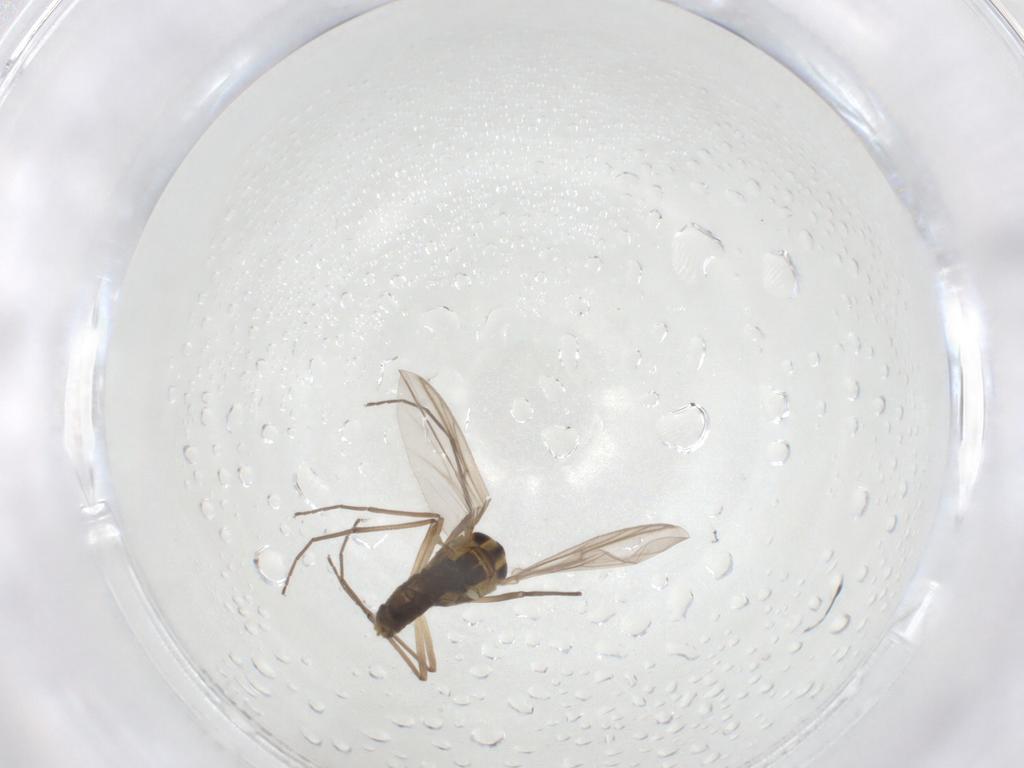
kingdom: Animalia
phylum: Arthropoda
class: Insecta
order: Diptera
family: Chironomidae
